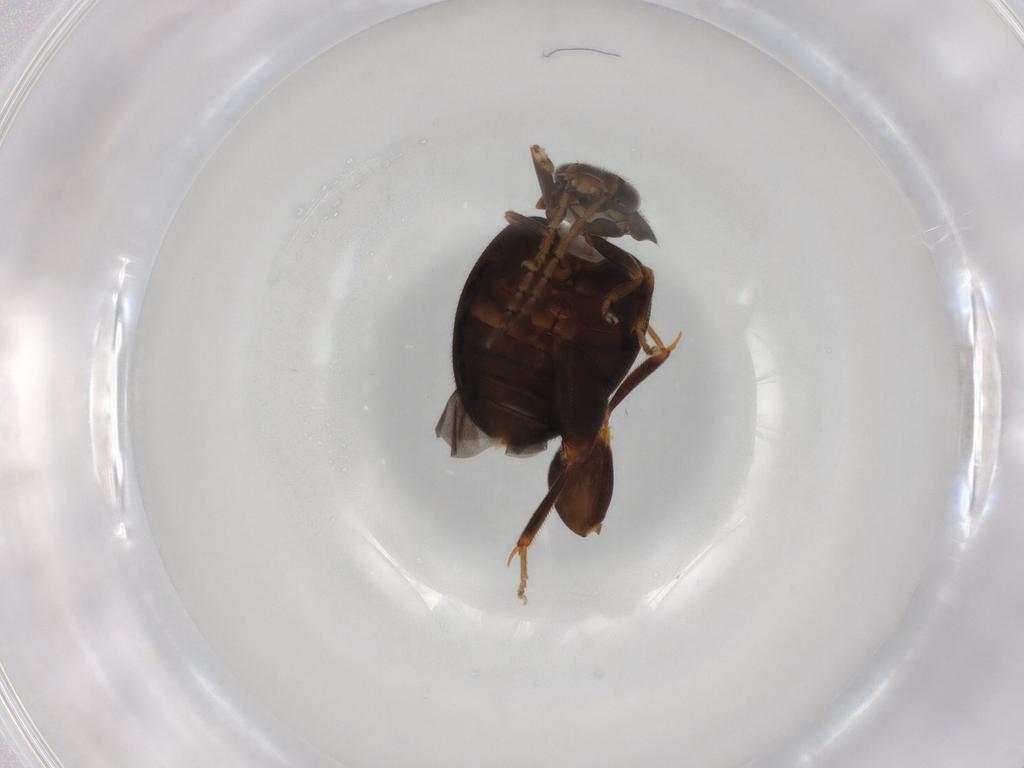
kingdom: Animalia
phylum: Arthropoda
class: Insecta
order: Coleoptera
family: Scirtidae
